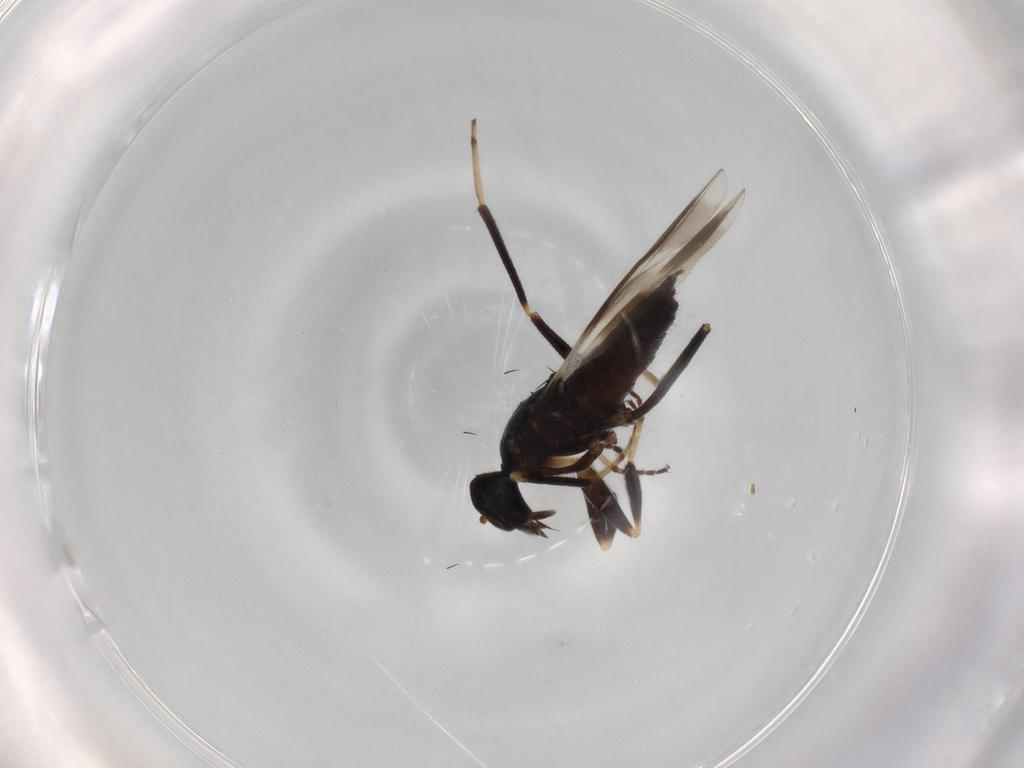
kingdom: Animalia
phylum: Arthropoda
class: Insecta
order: Diptera
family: Hybotidae
